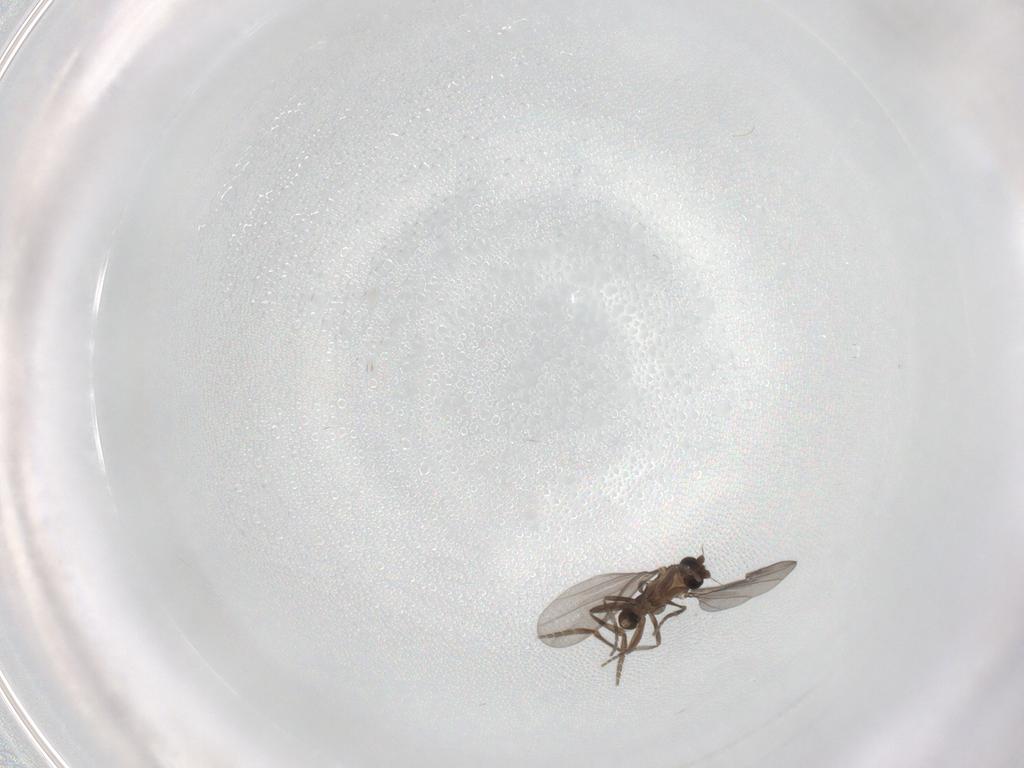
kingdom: Animalia
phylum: Arthropoda
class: Insecta
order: Diptera
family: Phoridae
